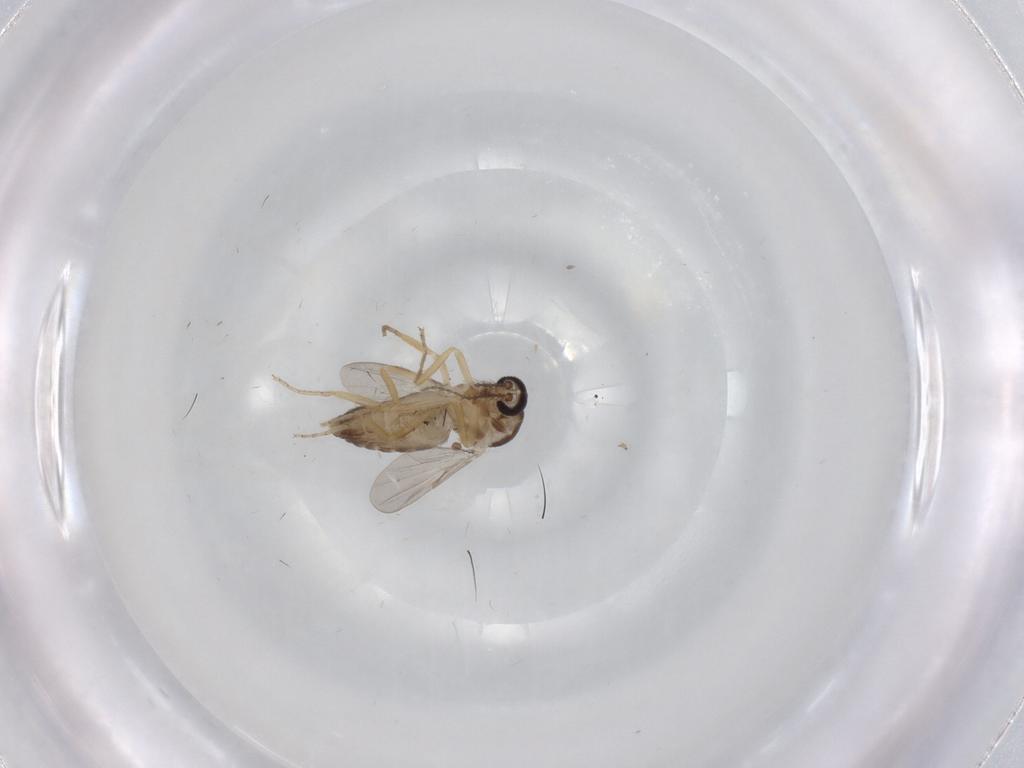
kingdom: Animalia
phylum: Arthropoda
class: Insecta
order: Diptera
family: Ceratopogonidae
